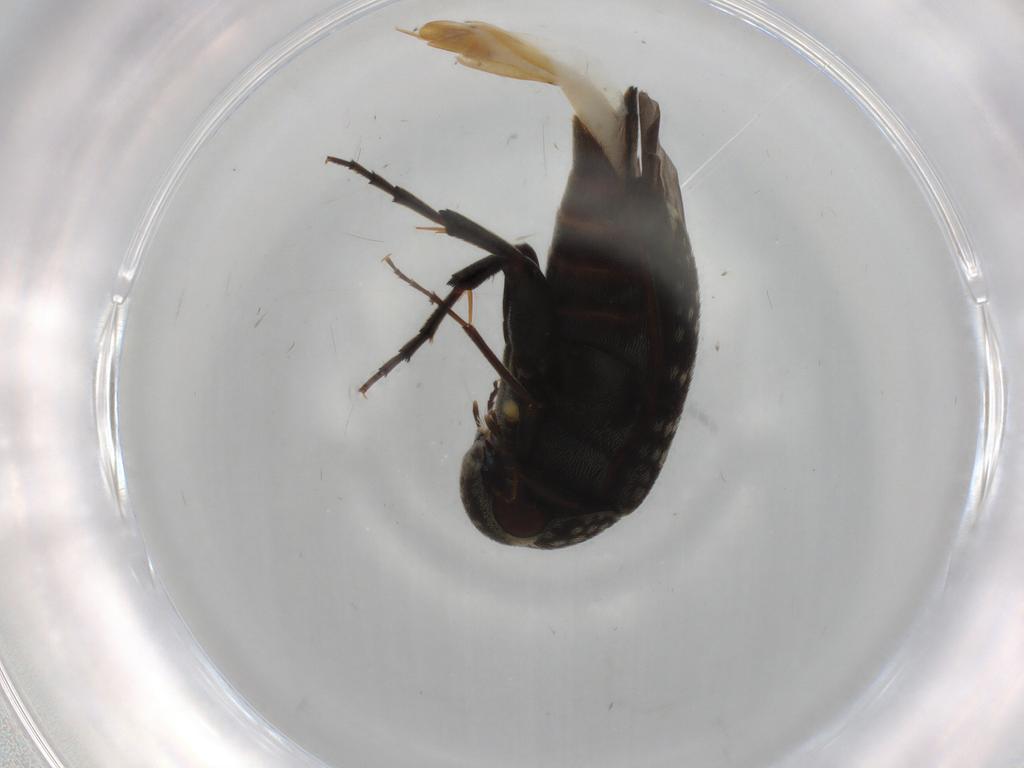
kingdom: Animalia
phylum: Arthropoda
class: Insecta
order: Coleoptera
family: Mordellidae
